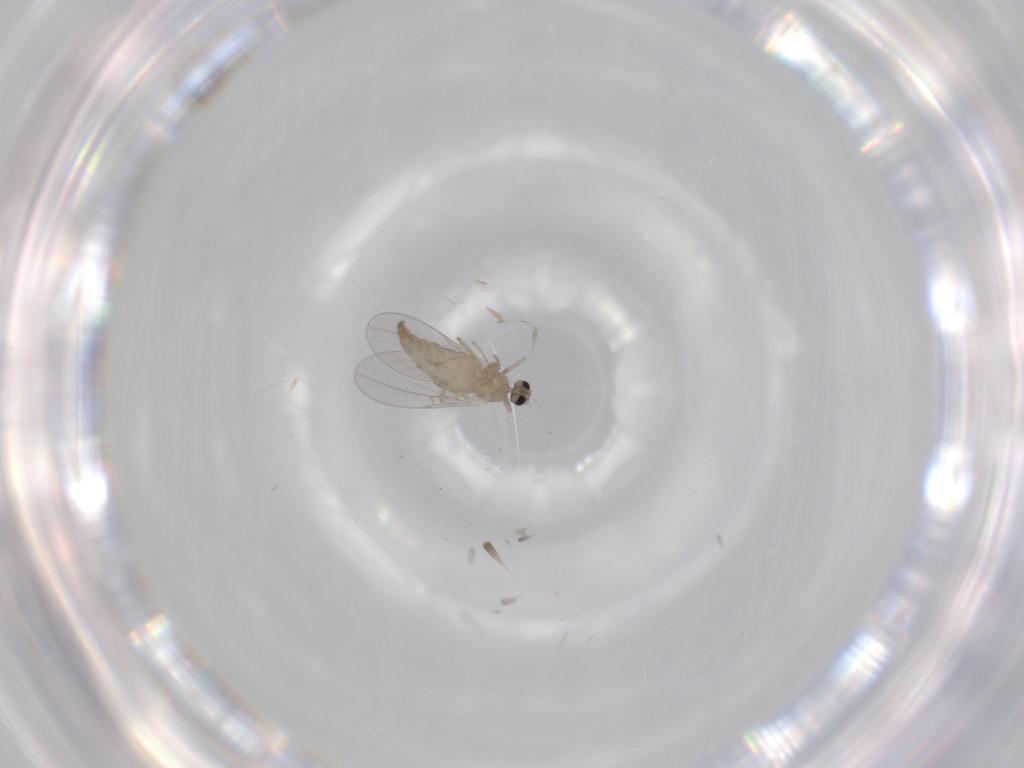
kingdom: Animalia
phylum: Arthropoda
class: Insecta
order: Diptera
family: Cecidomyiidae
